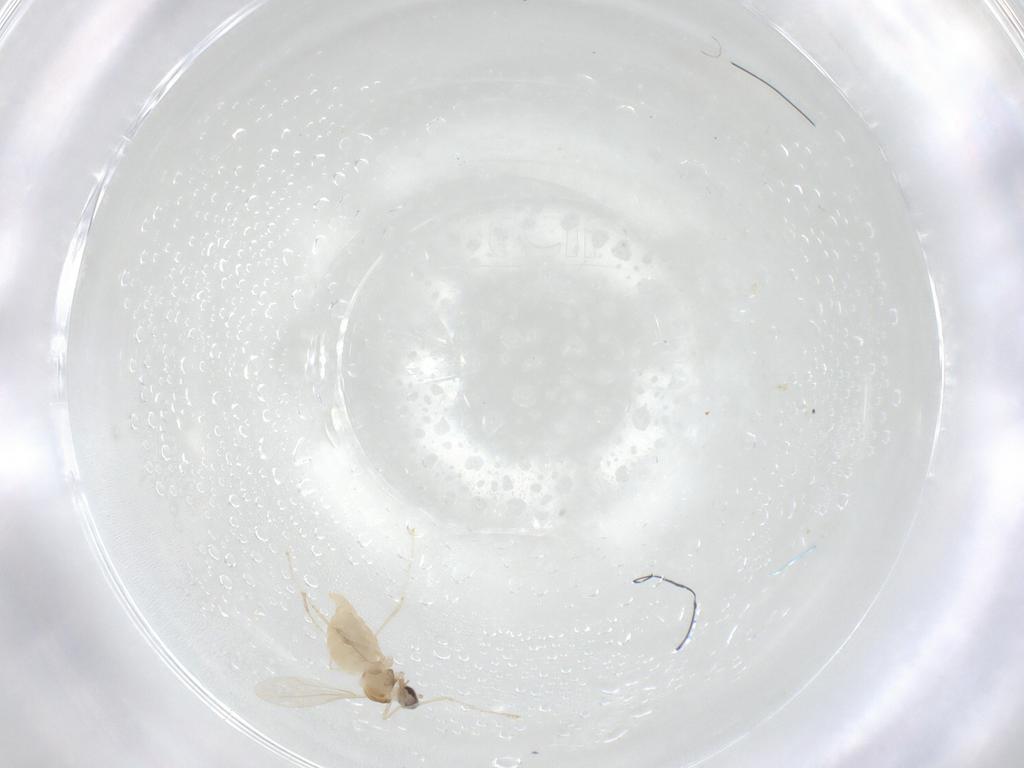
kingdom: Animalia
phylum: Arthropoda
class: Insecta
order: Diptera
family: Cecidomyiidae
